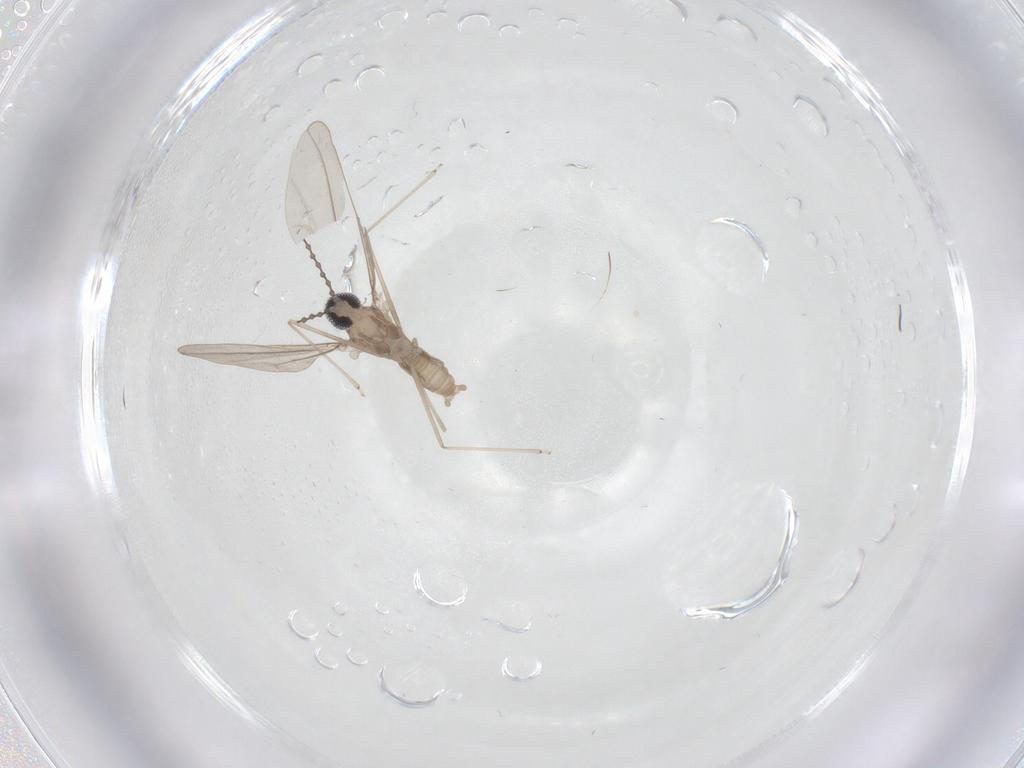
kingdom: Animalia
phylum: Arthropoda
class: Insecta
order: Diptera
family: Cecidomyiidae
